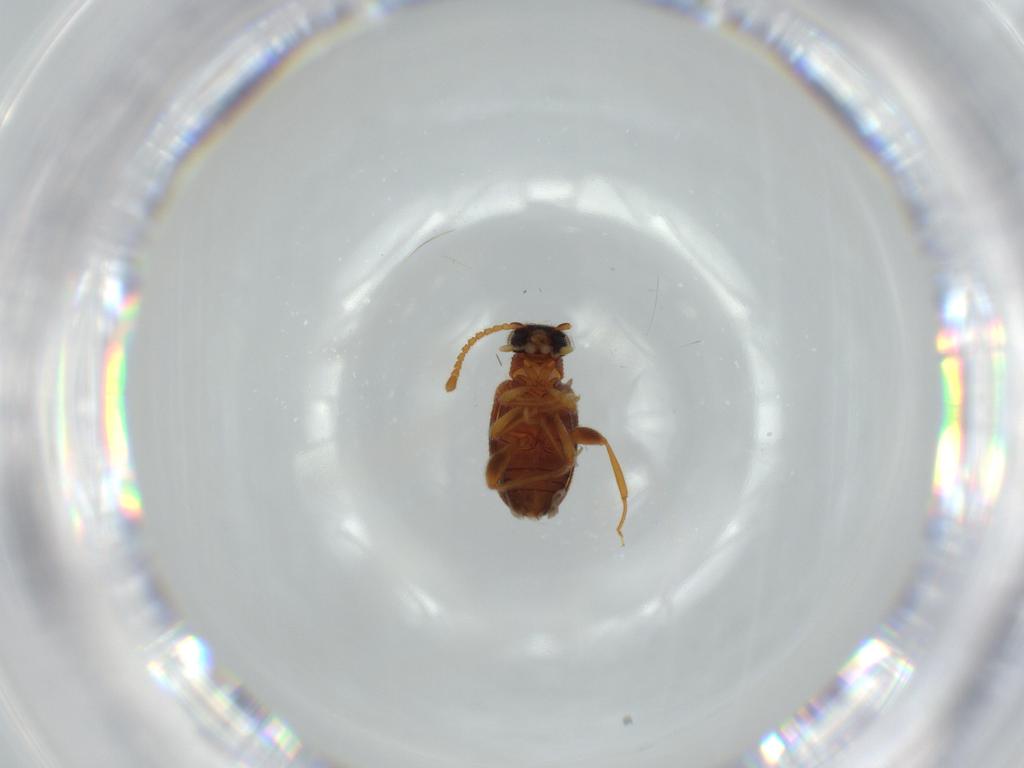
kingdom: Animalia
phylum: Arthropoda
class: Insecta
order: Coleoptera
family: Aderidae
